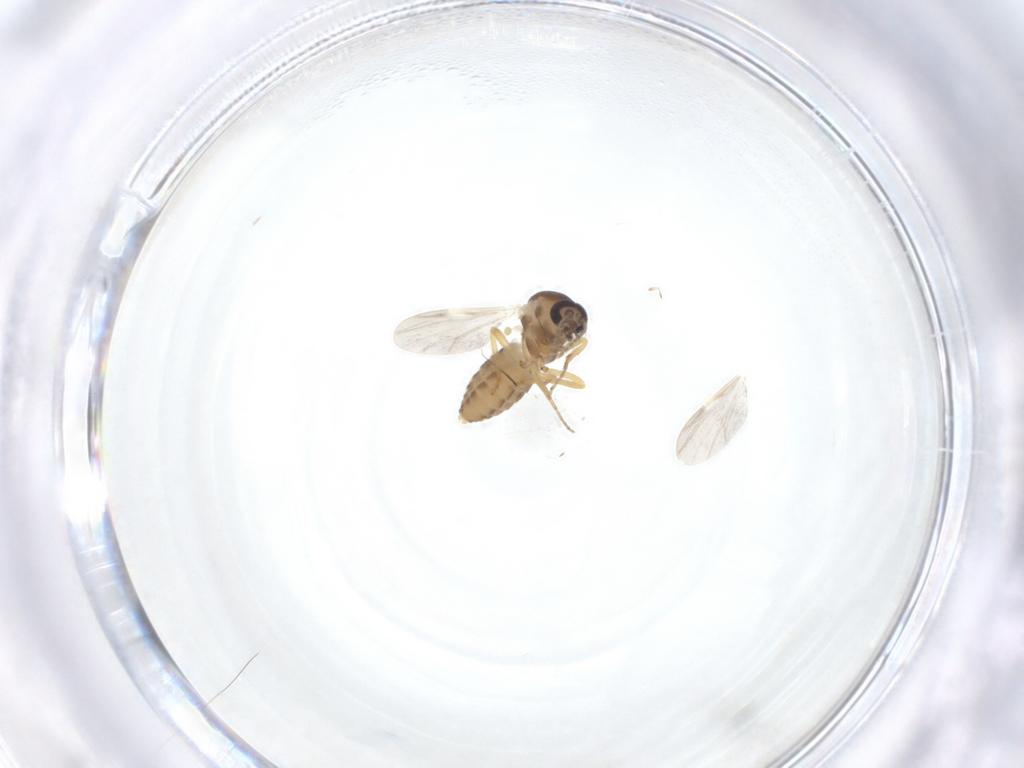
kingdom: Animalia
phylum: Arthropoda
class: Insecta
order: Diptera
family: Ceratopogonidae
